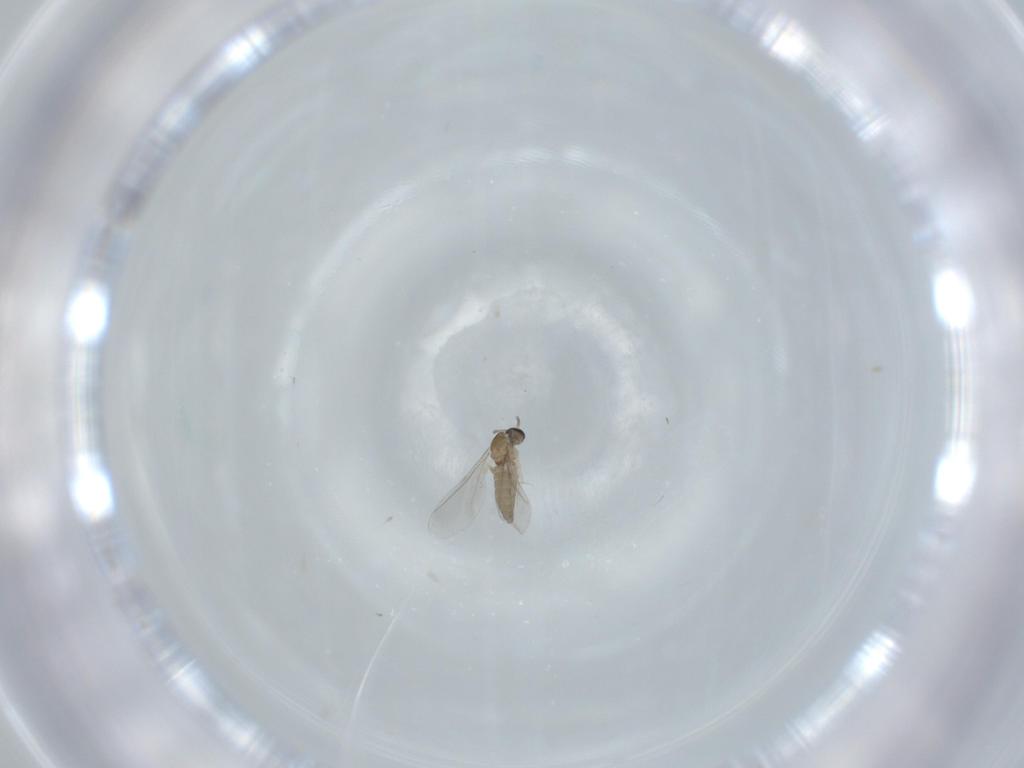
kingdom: Animalia
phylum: Arthropoda
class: Insecta
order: Diptera
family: Cecidomyiidae
